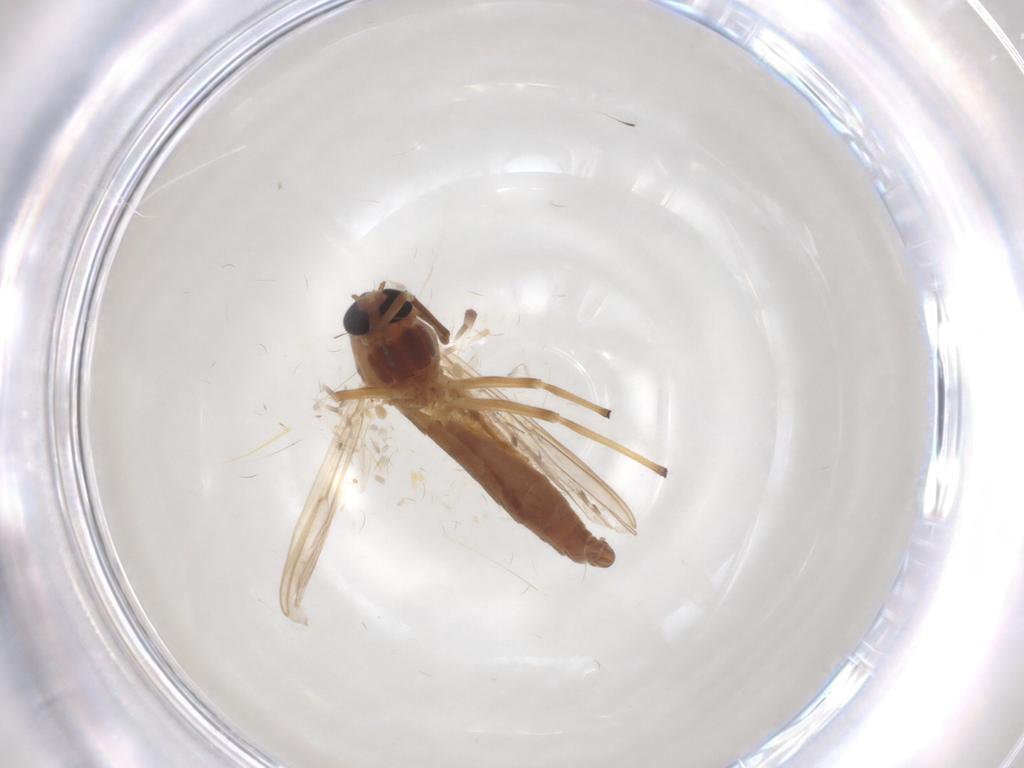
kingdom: Animalia
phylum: Arthropoda
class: Insecta
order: Diptera
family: Chironomidae
